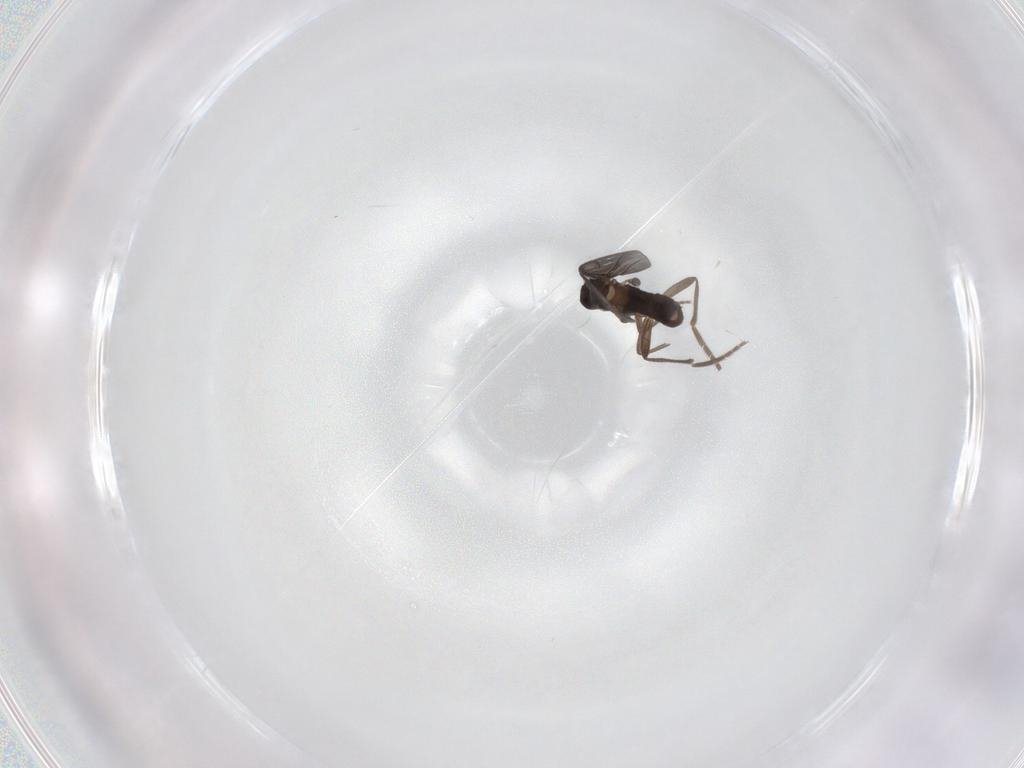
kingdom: Animalia
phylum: Arthropoda
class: Insecta
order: Diptera
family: Phoridae
